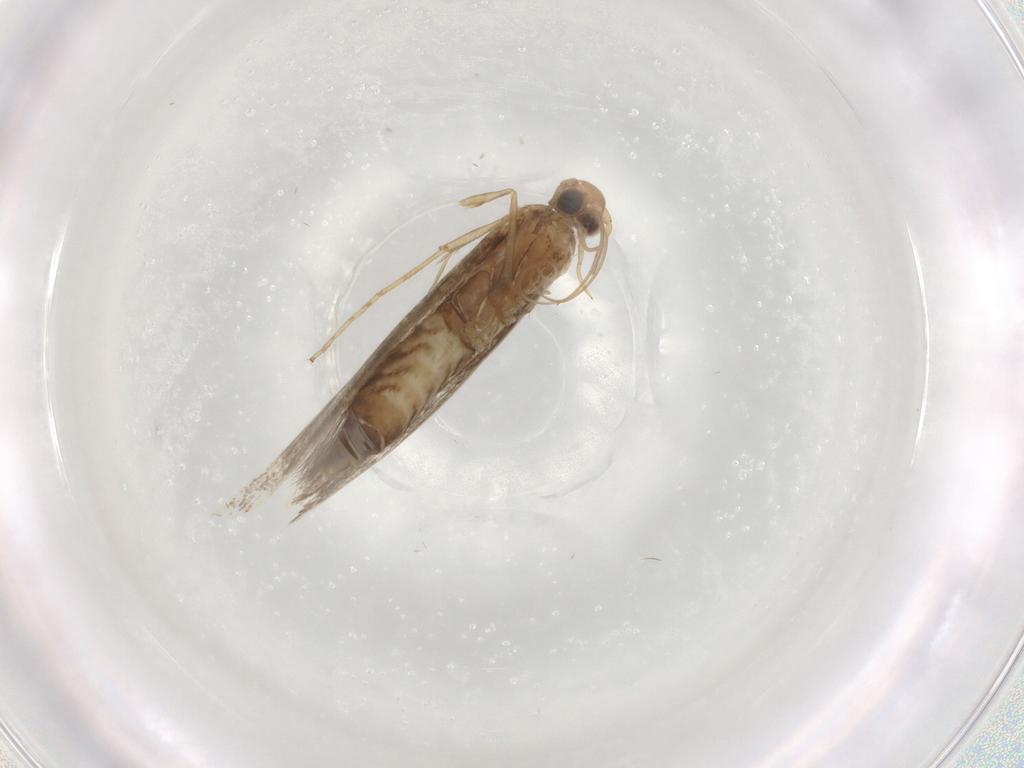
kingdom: Animalia
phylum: Arthropoda
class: Insecta
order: Lepidoptera
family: Gracillariidae
